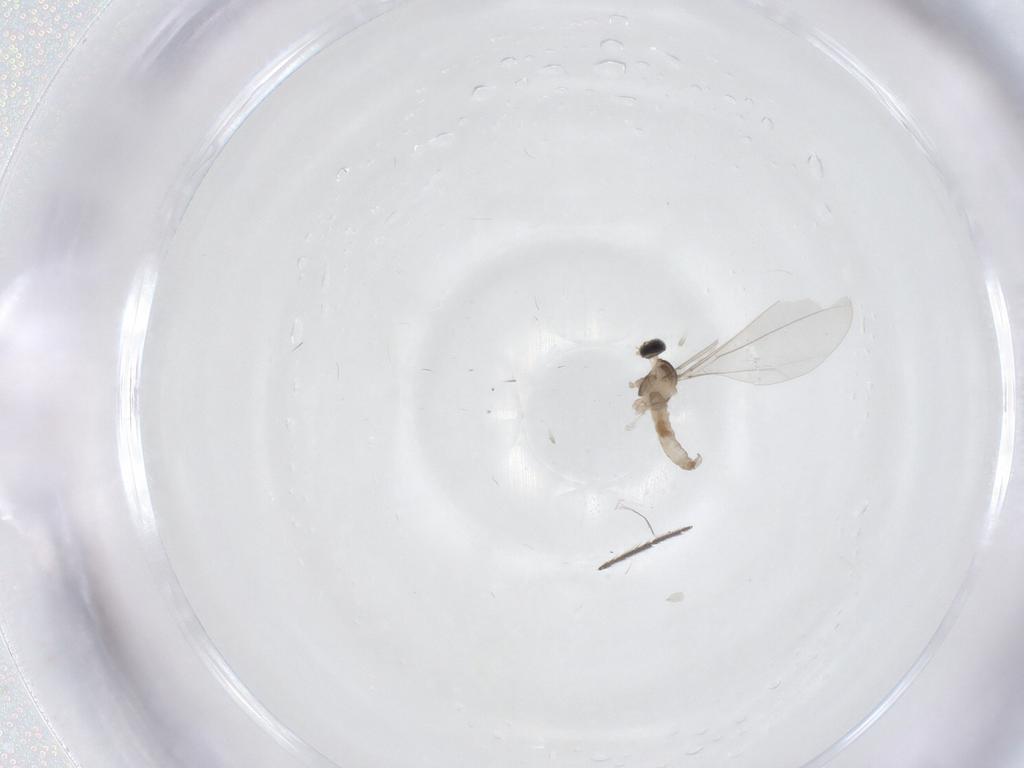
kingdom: Animalia
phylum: Arthropoda
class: Insecta
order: Diptera
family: Cecidomyiidae
